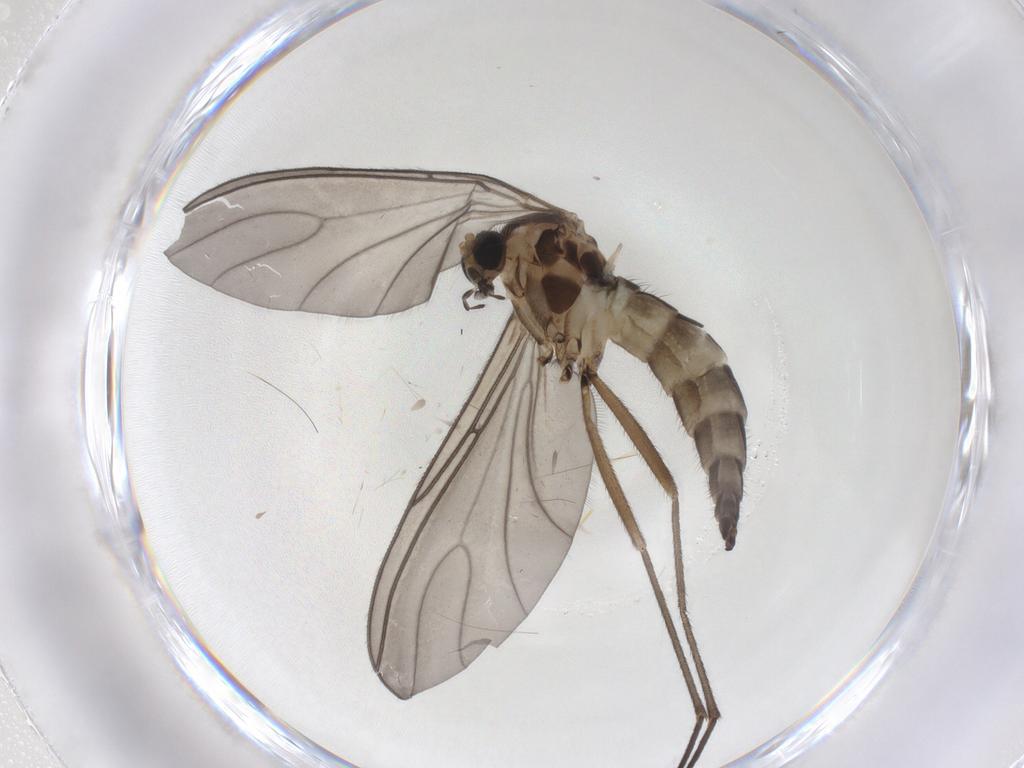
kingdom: Animalia
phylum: Arthropoda
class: Insecta
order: Diptera
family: Sciaridae
